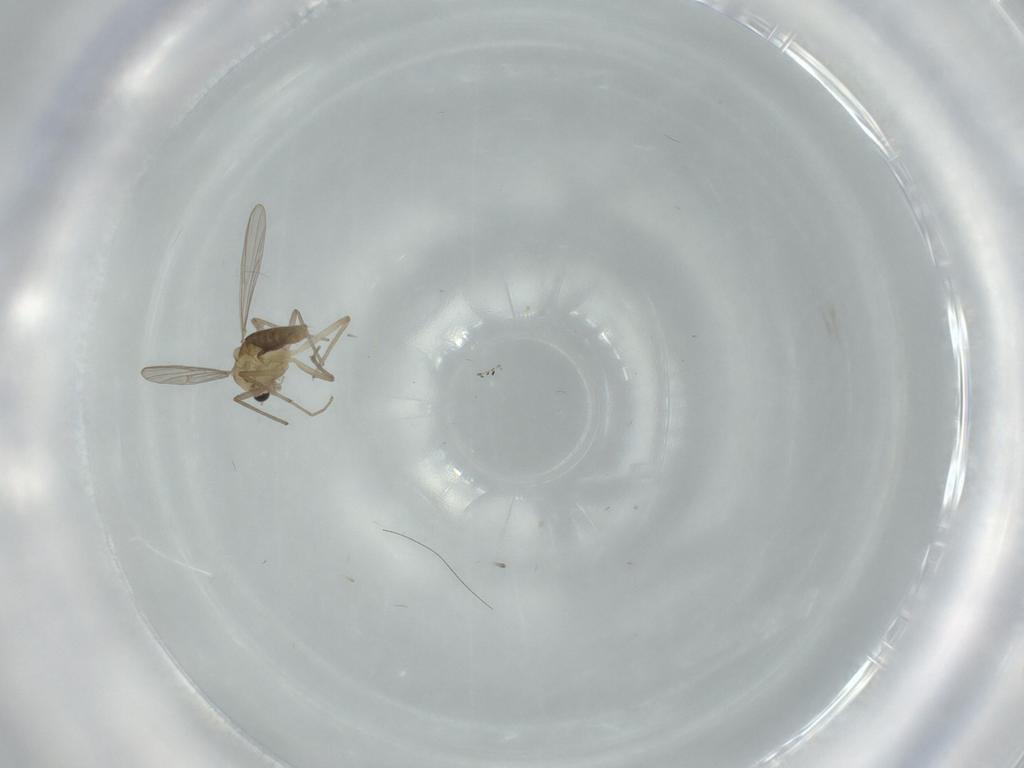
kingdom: Animalia
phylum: Arthropoda
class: Insecta
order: Diptera
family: Chironomidae
